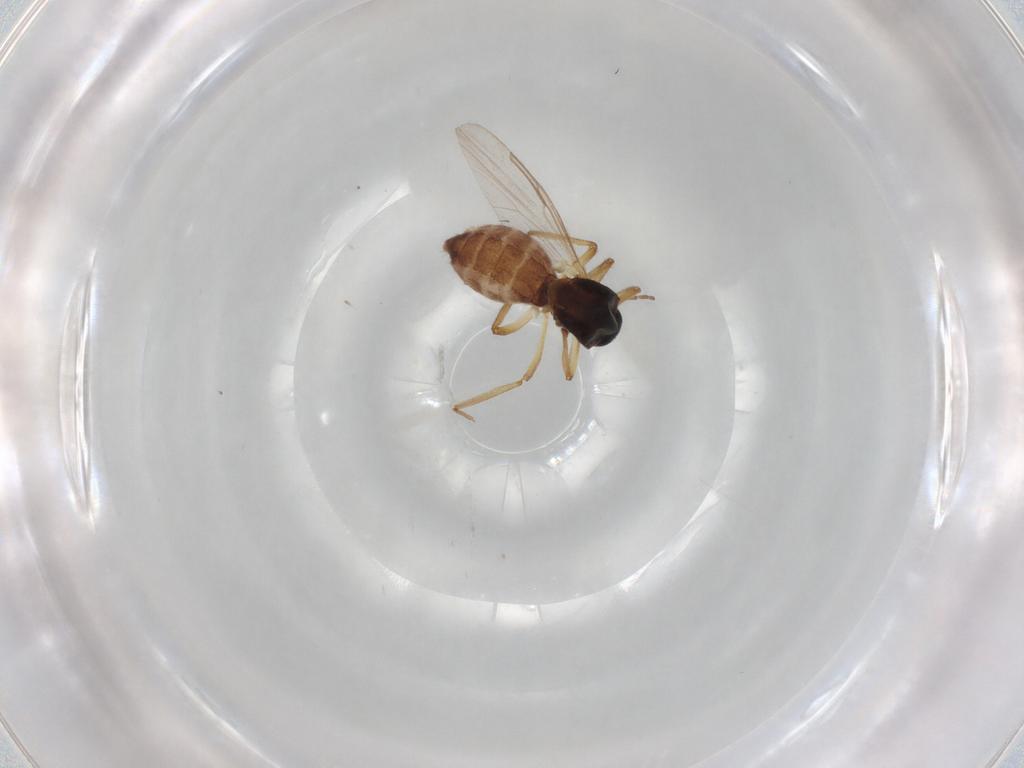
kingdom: Animalia
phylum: Arthropoda
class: Insecta
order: Diptera
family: Ceratopogonidae
